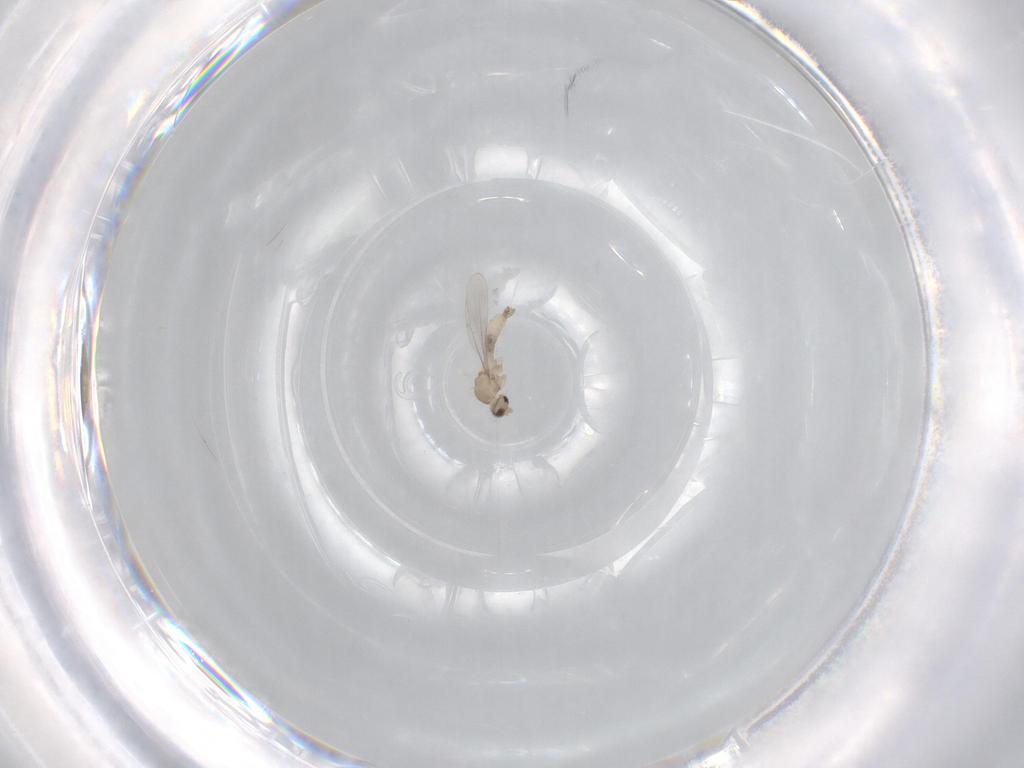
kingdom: Animalia
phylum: Arthropoda
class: Insecta
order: Diptera
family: Cecidomyiidae
